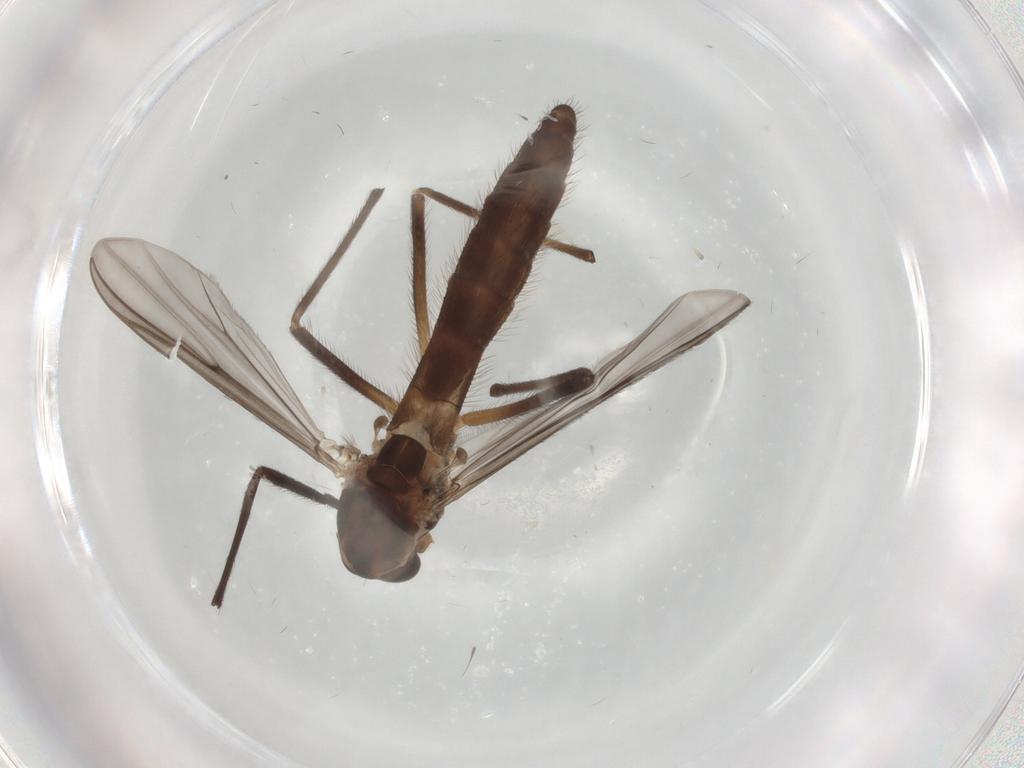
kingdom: Animalia
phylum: Arthropoda
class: Insecta
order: Diptera
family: Chironomidae
